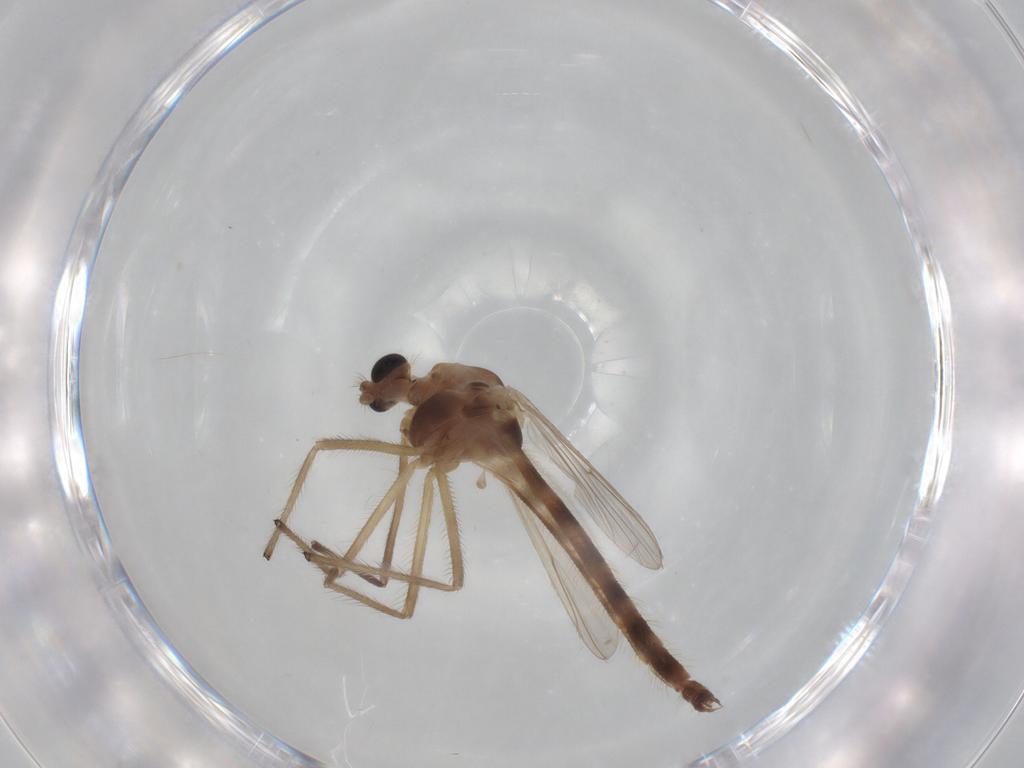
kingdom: Animalia
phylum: Arthropoda
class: Insecta
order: Diptera
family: Chironomidae
